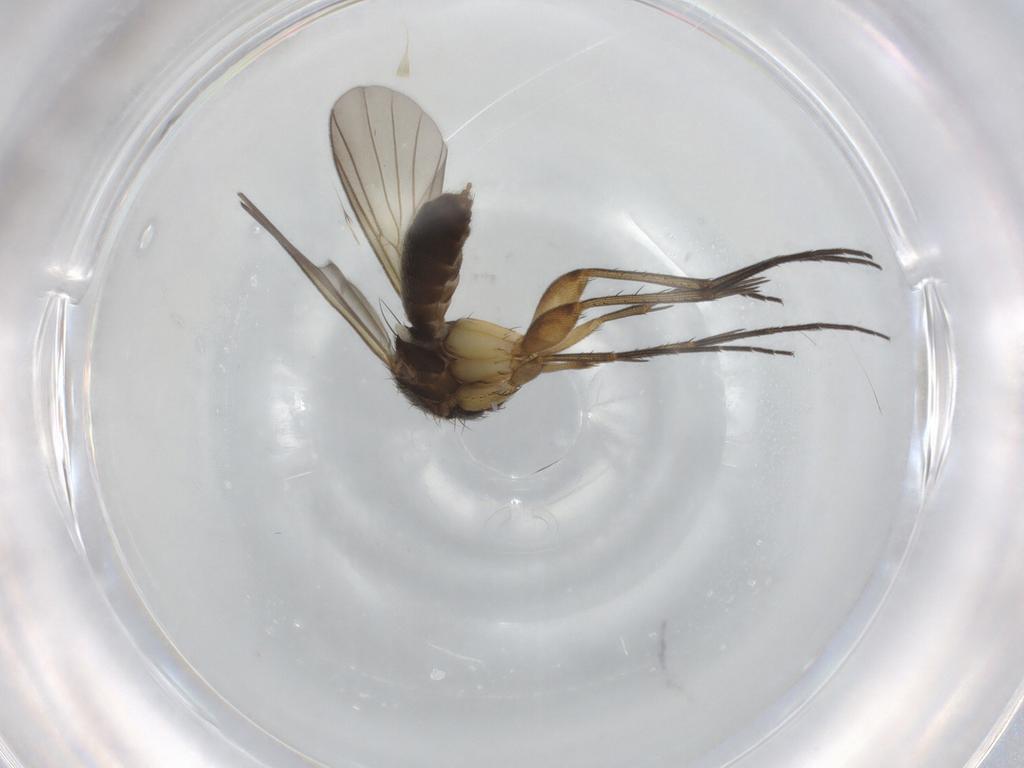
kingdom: Animalia
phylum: Arthropoda
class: Insecta
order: Diptera
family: Mycetophilidae
